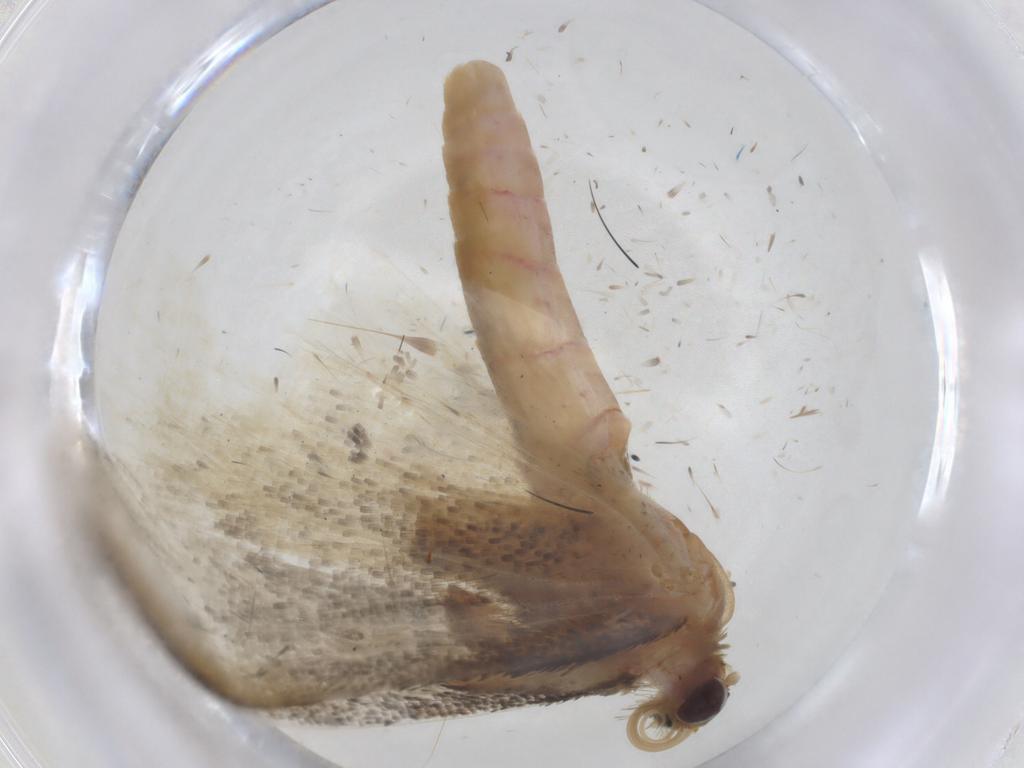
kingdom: Animalia
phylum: Arthropoda
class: Insecta
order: Lepidoptera
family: Geometridae
